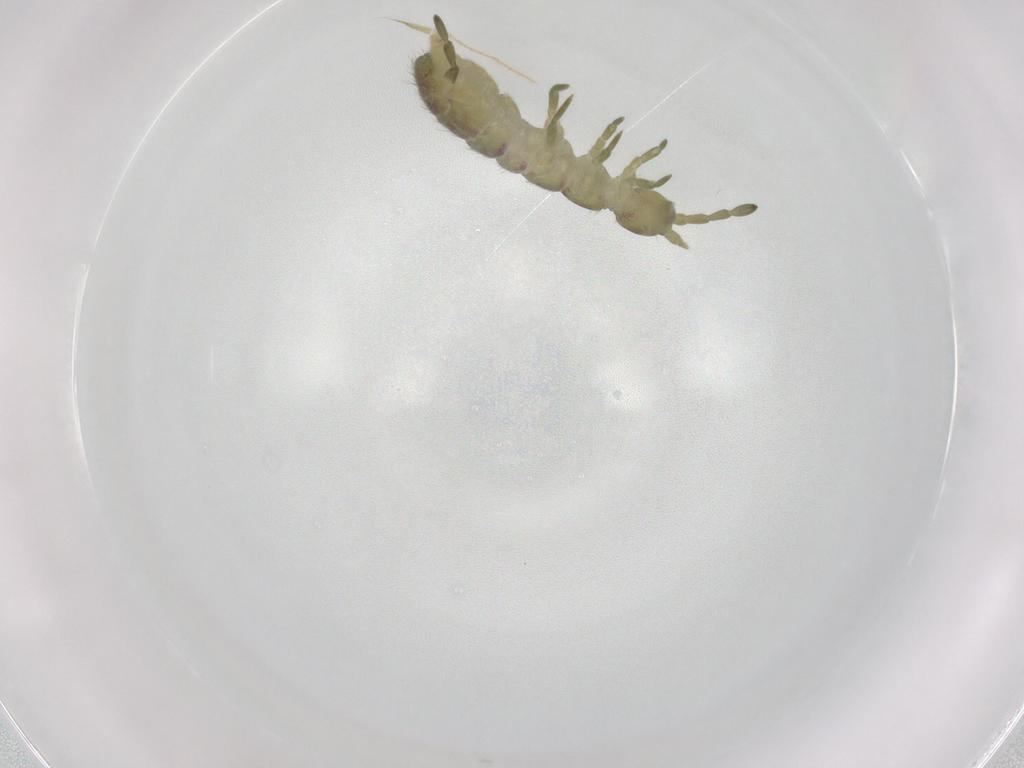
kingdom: Animalia
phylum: Arthropoda
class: Collembola
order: Entomobryomorpha
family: Isotomidae
